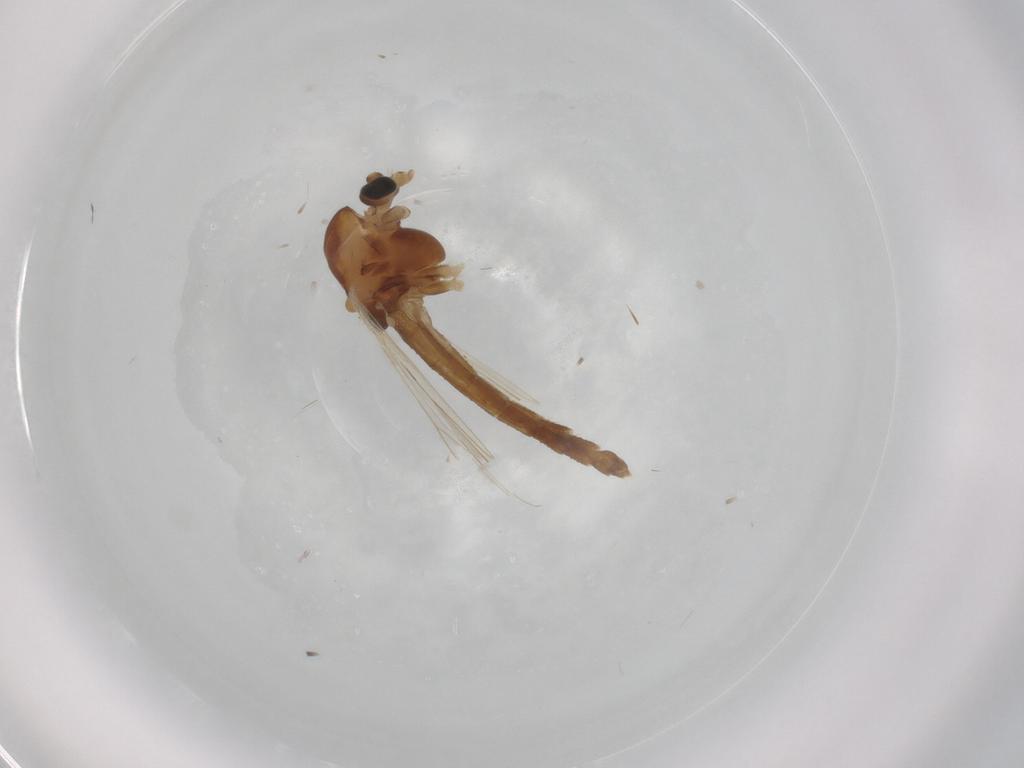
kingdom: Animalia
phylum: Arthropoda
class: Insecta
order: Diptera
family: Chironomidae
